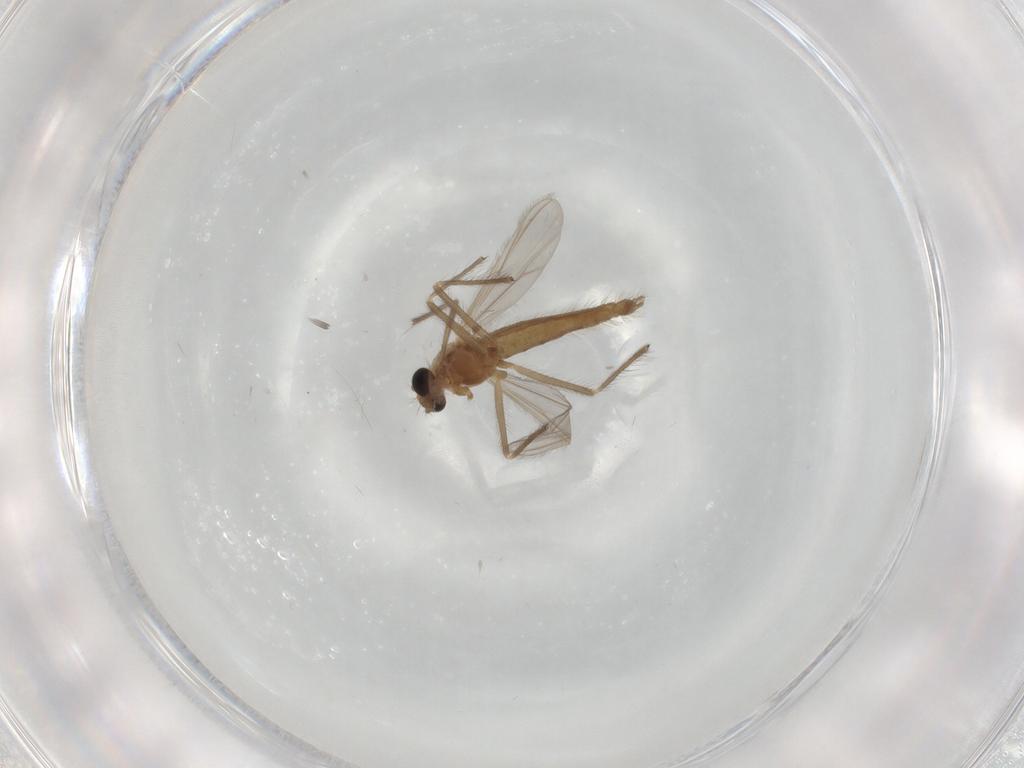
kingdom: Animalia
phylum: Arthropoda
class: Insecta
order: Diptera
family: Chironomidae
